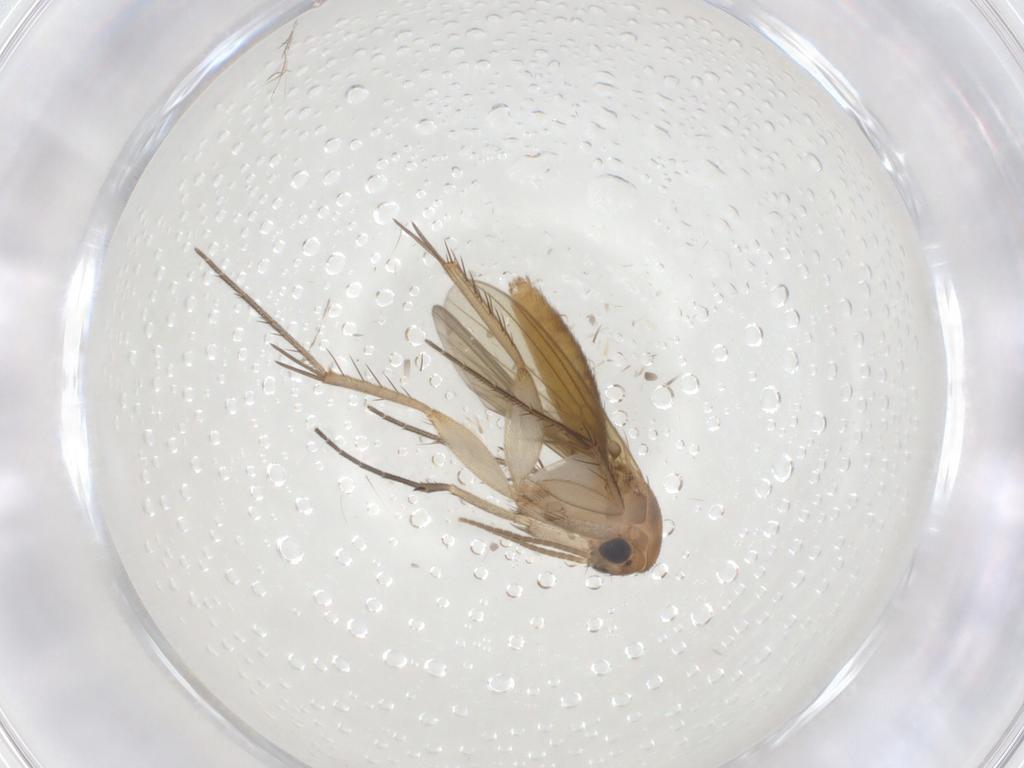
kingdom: Animalia
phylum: Arthropoda
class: Insecta
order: Diptera
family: Mycetophilidae
